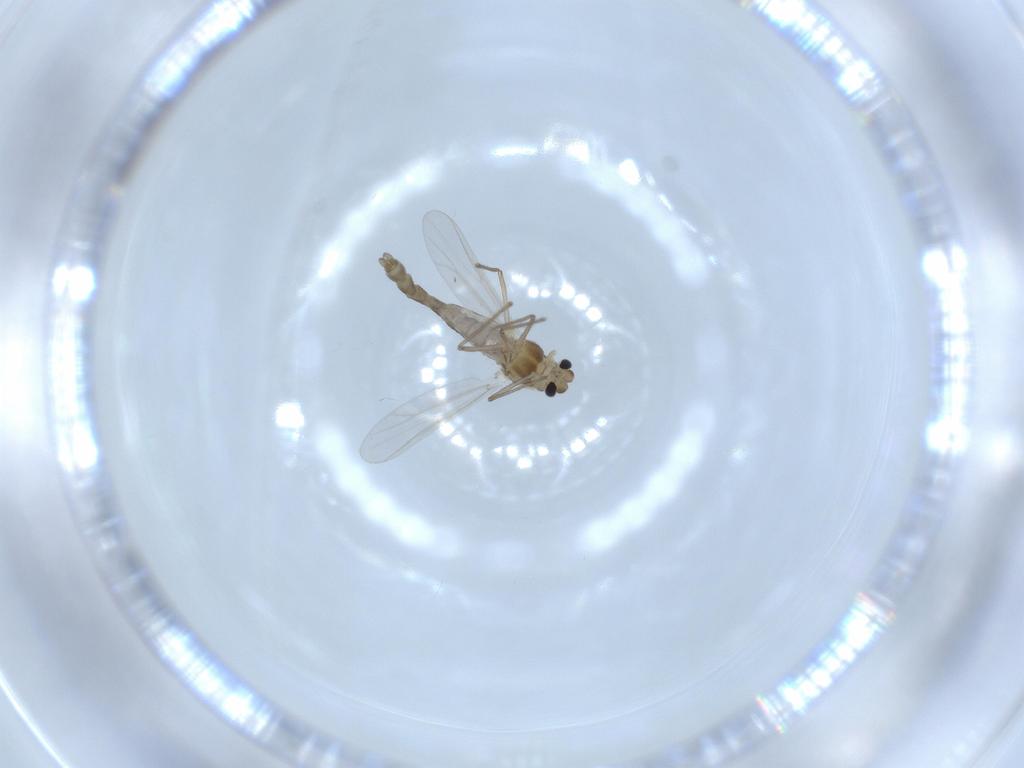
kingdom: Animalia
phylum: Arthropoda
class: Insecta
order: Diptera
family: Chironomidae
